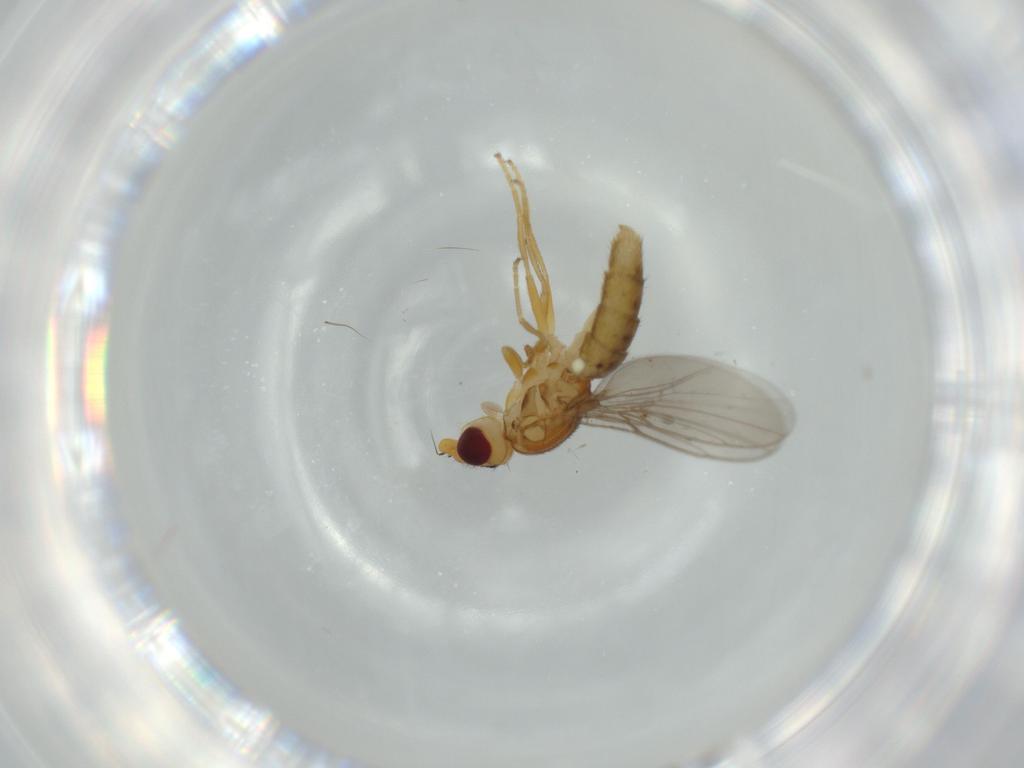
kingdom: Animalia
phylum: Arthropoda
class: Insecta
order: Diptera
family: Chloropidae
